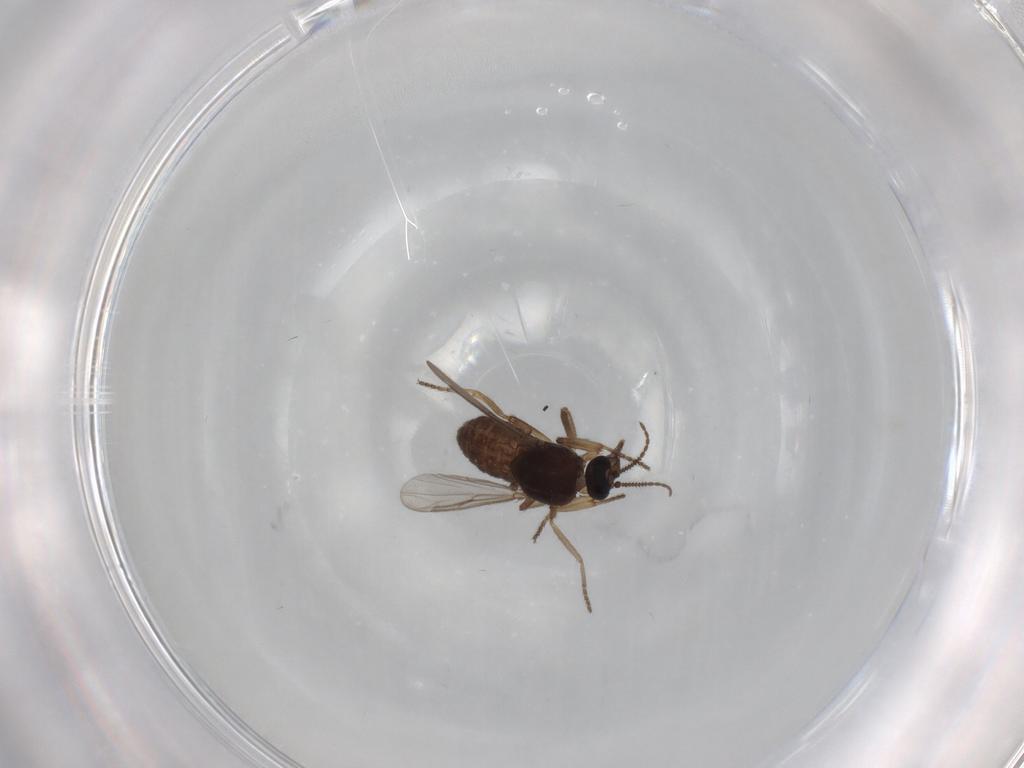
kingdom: Animalia
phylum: Arthropoda
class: Insecta
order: Diptera
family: Ceratopogonidae
